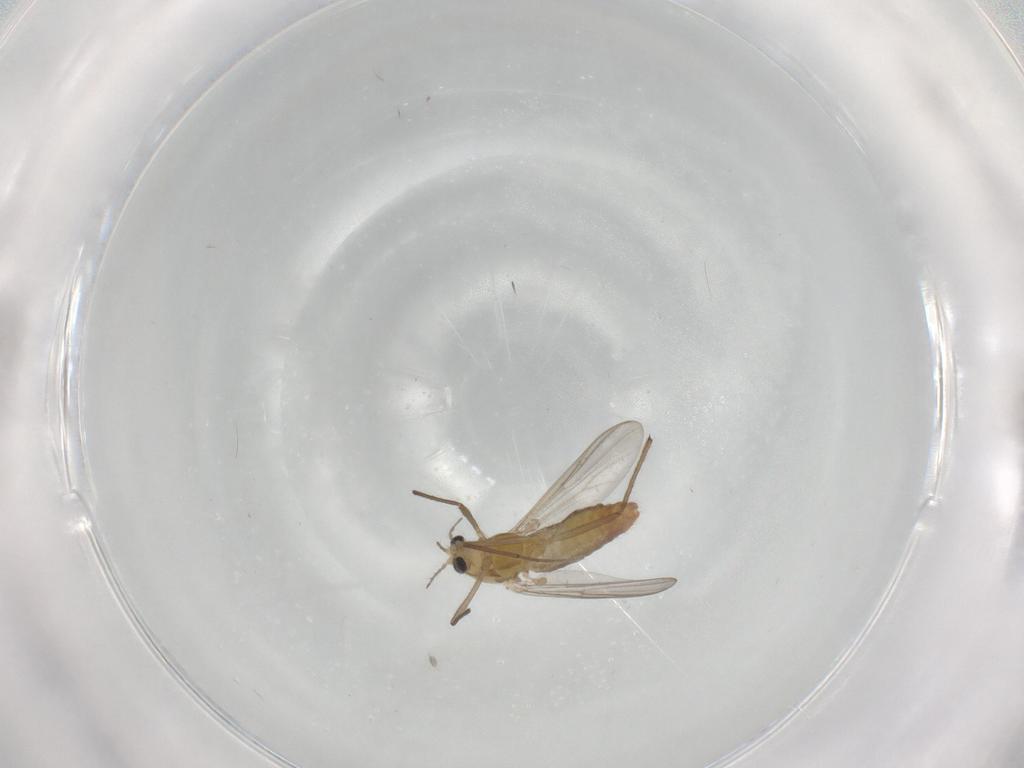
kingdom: Animalia
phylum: Arthropoda
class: Insecta
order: Diptera
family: Chironomidae
